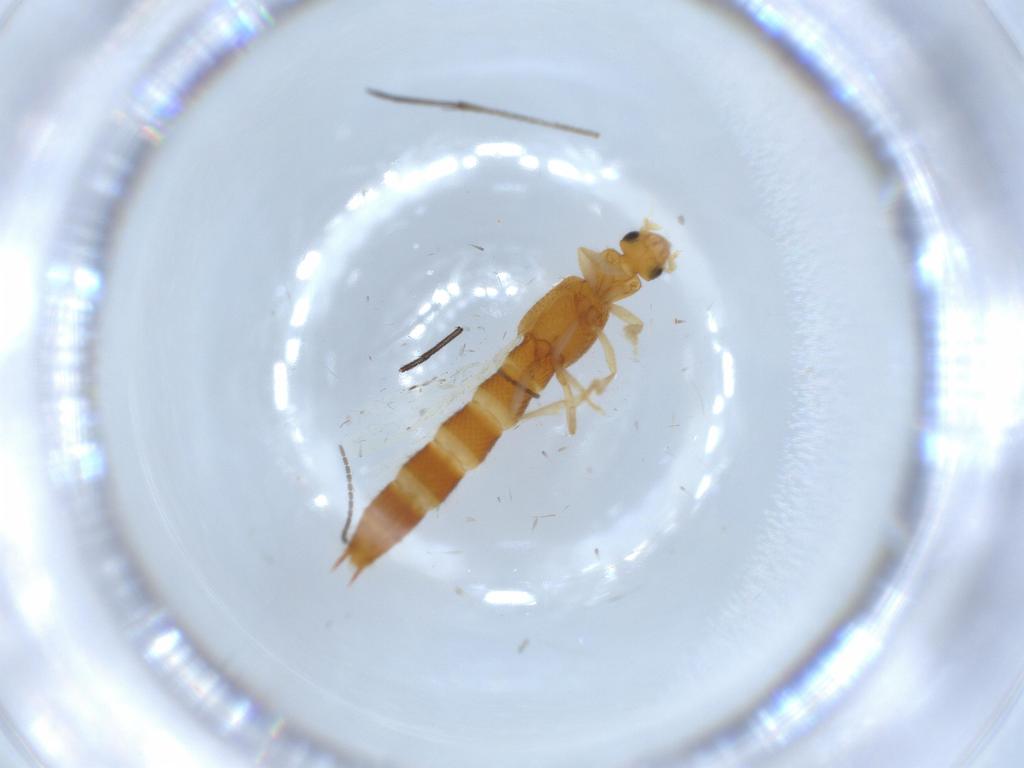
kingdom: Animalia
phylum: Arthropoda
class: Insecta
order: Coleoptera
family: Staphylinidae
